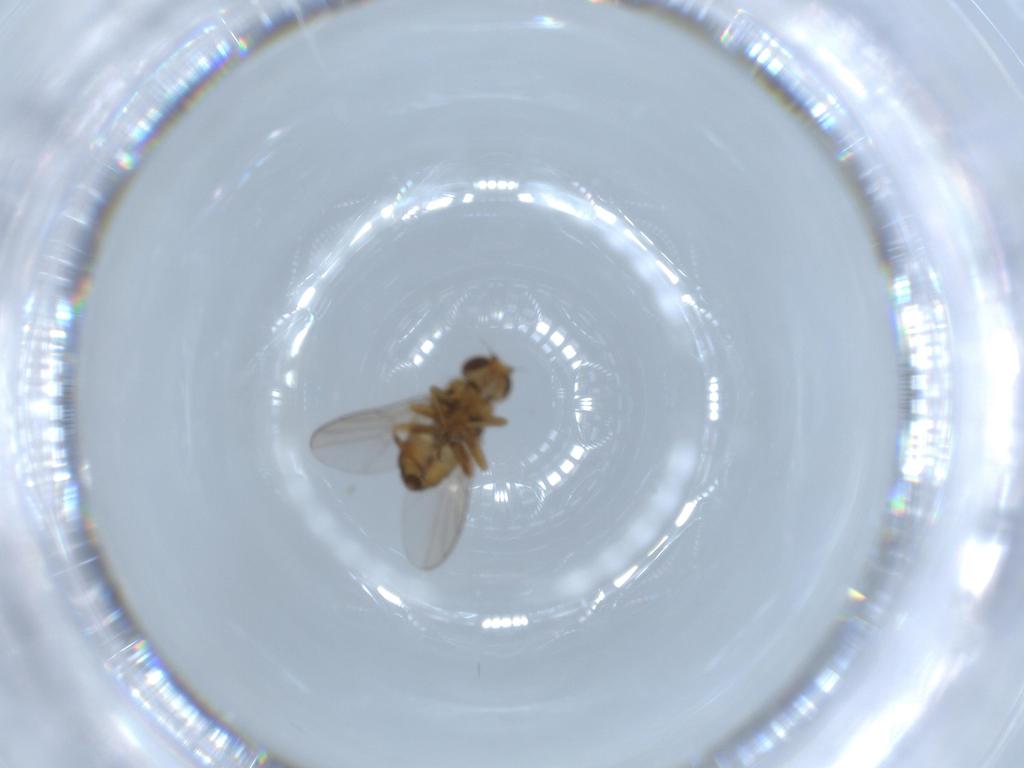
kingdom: Animalia
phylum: Arthropoda
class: Insecta
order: Diptera
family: Chloropidae
